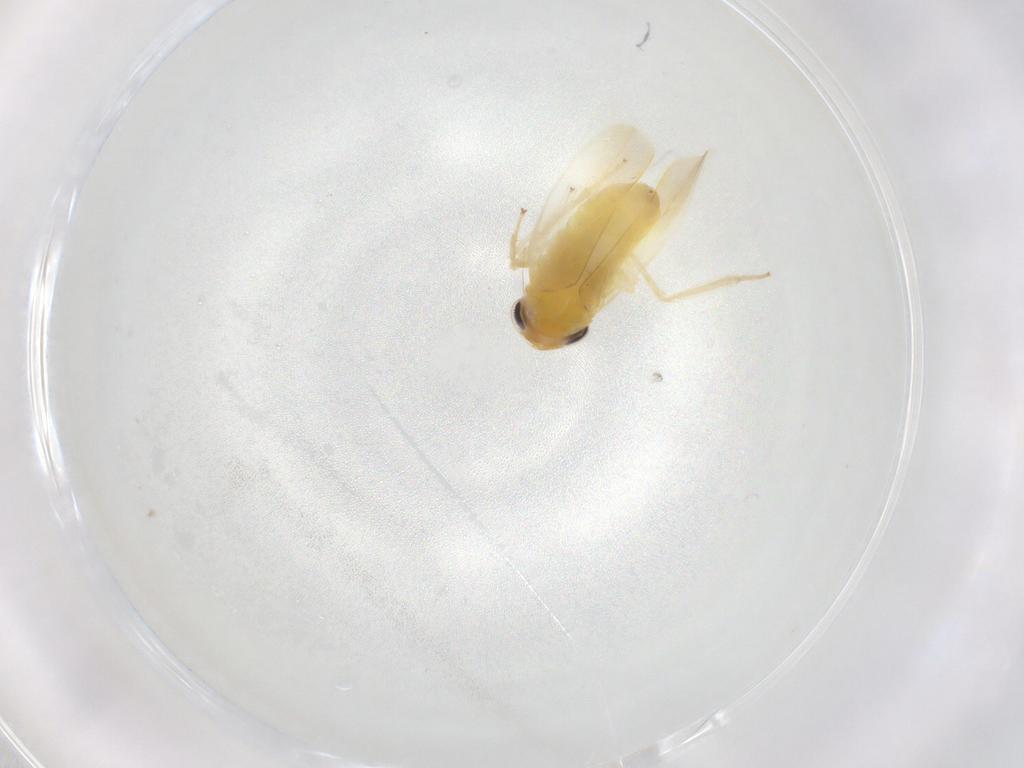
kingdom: Animalia
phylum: Arthropoda
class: Insecta
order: Hemiptera
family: Cicadellidae
